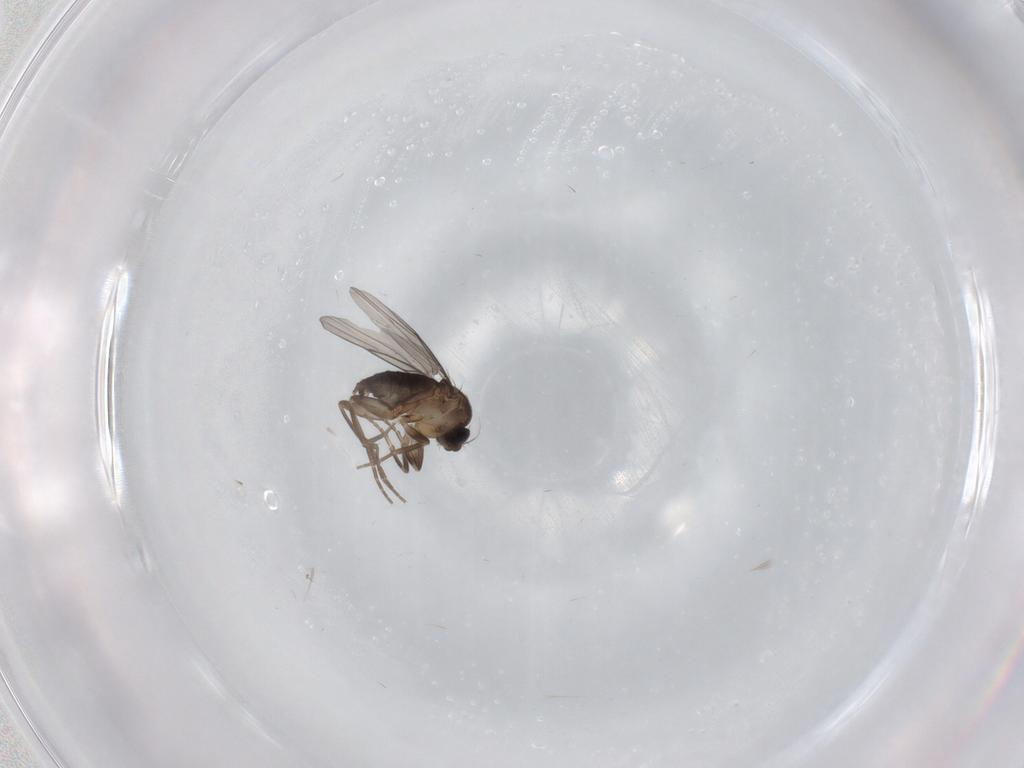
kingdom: Animalia
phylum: Arthropoda
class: Insecta
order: Diptera
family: Phoridae
